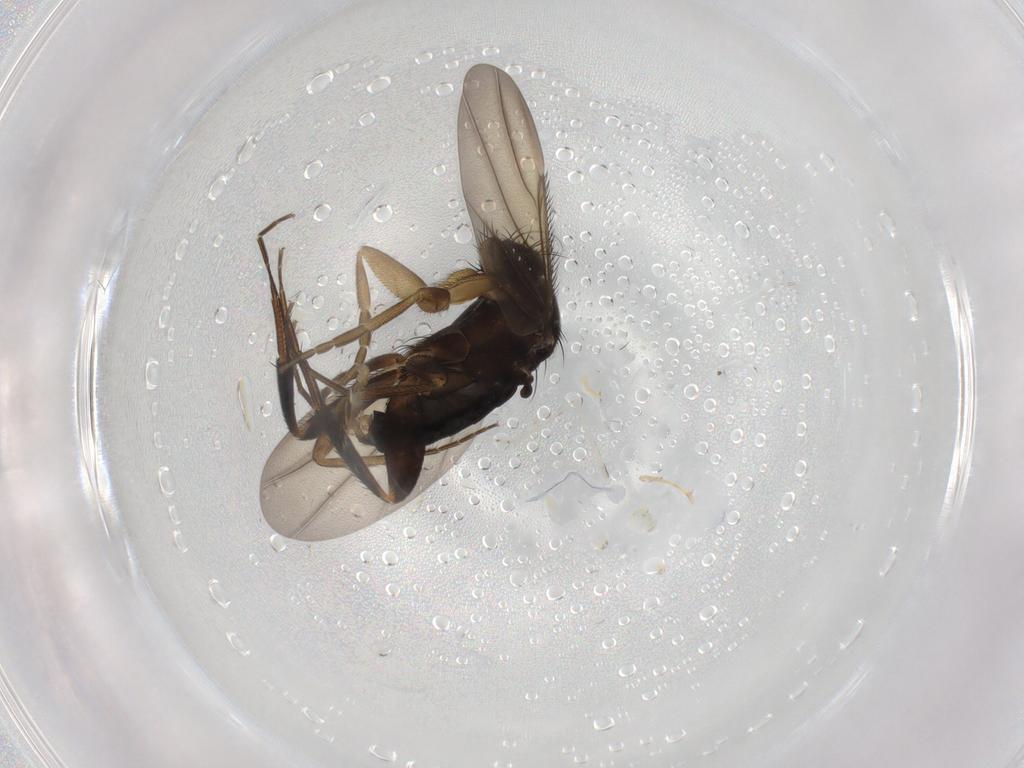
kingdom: Animalia
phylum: Arthropoda
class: Insecta
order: Diptera
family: Phoridae
